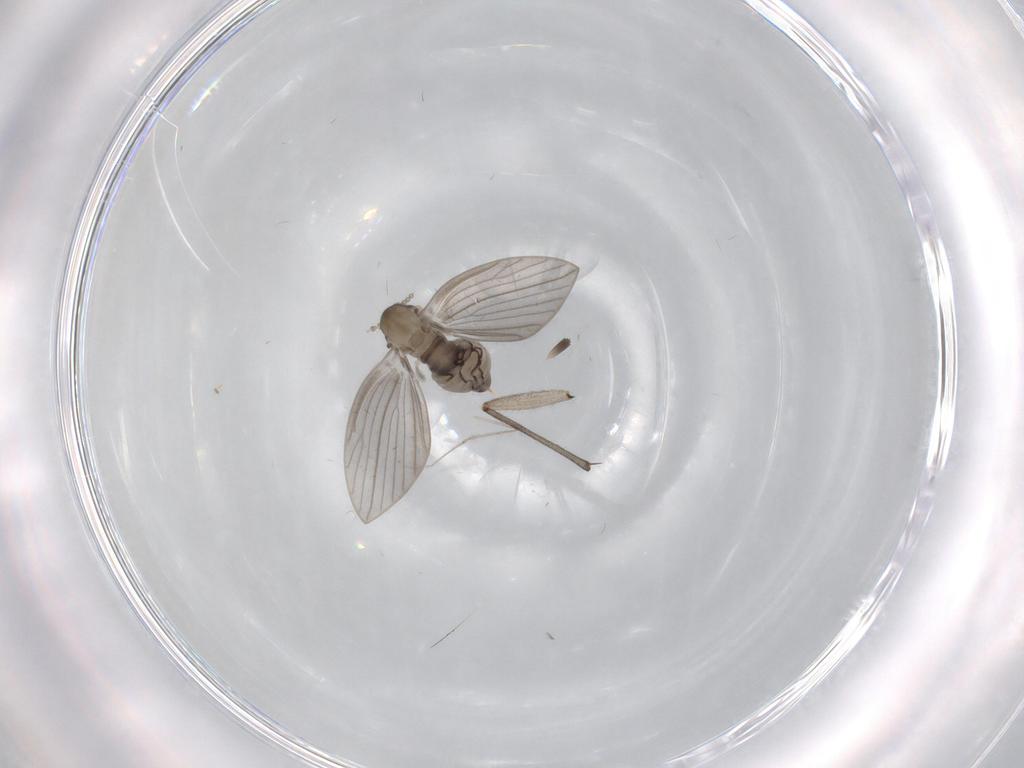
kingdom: Animalia
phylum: Arthropoda
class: Insecta
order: Diptera
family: Psychodidae
